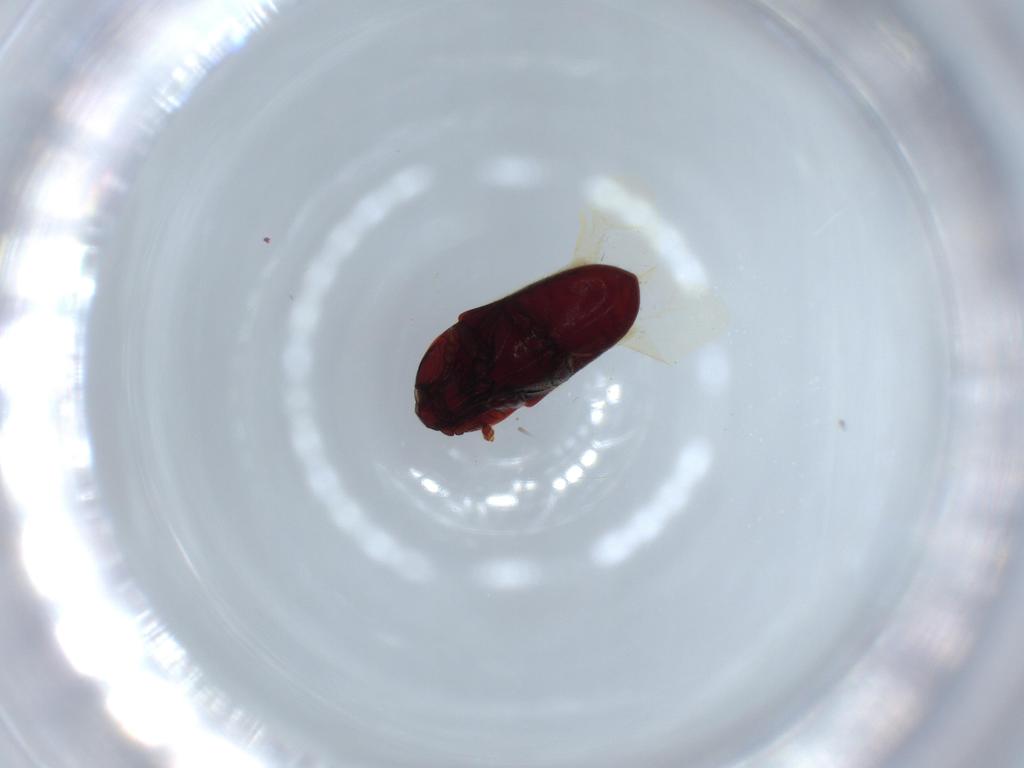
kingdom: Animalia
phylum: Arthropoda
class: Insecta
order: Coleoptera
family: Throscidae
